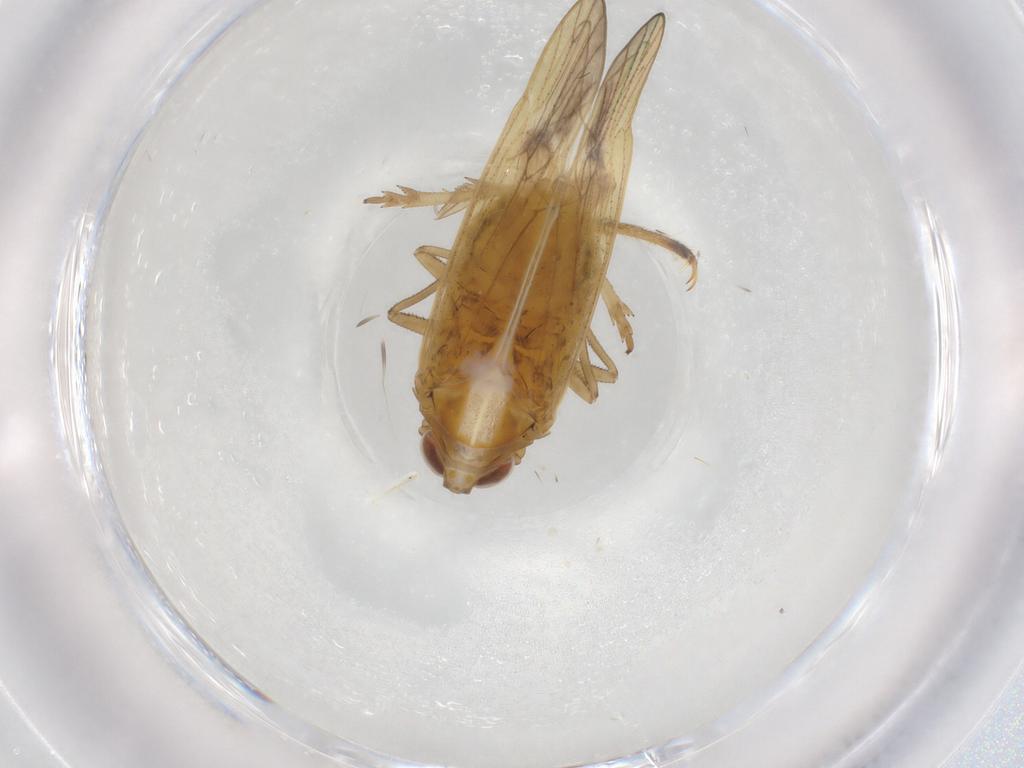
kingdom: Animalia
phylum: Arthropoda
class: Insecta
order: Hemiptera
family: Delphacidae
